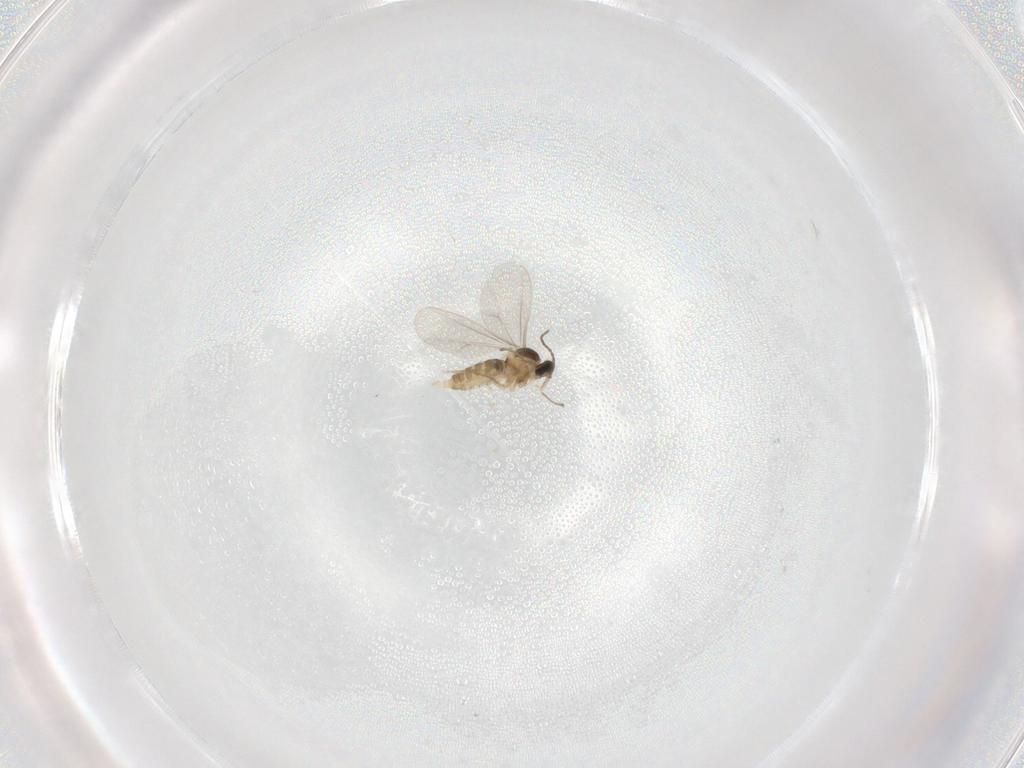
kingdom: Animalia
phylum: Arthropoda
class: Insecta
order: Diptera
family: Cecidomyiidae
